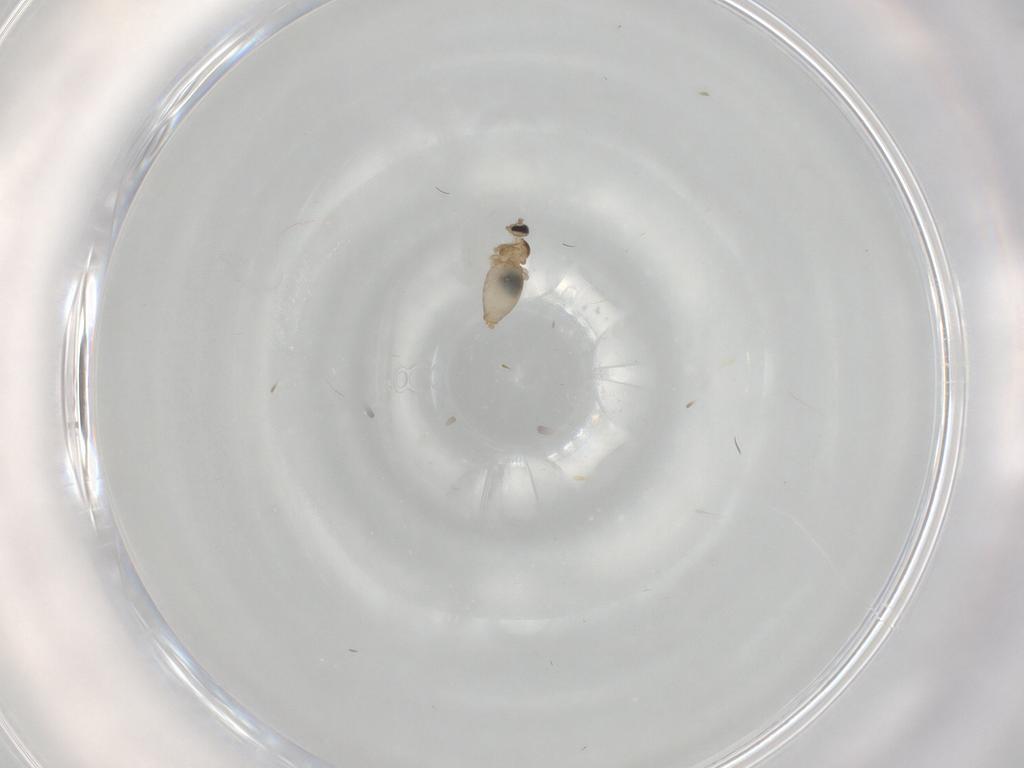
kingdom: Animalia
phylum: Arthropoda
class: Insecta
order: Diptera
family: Cecidomyiidae
